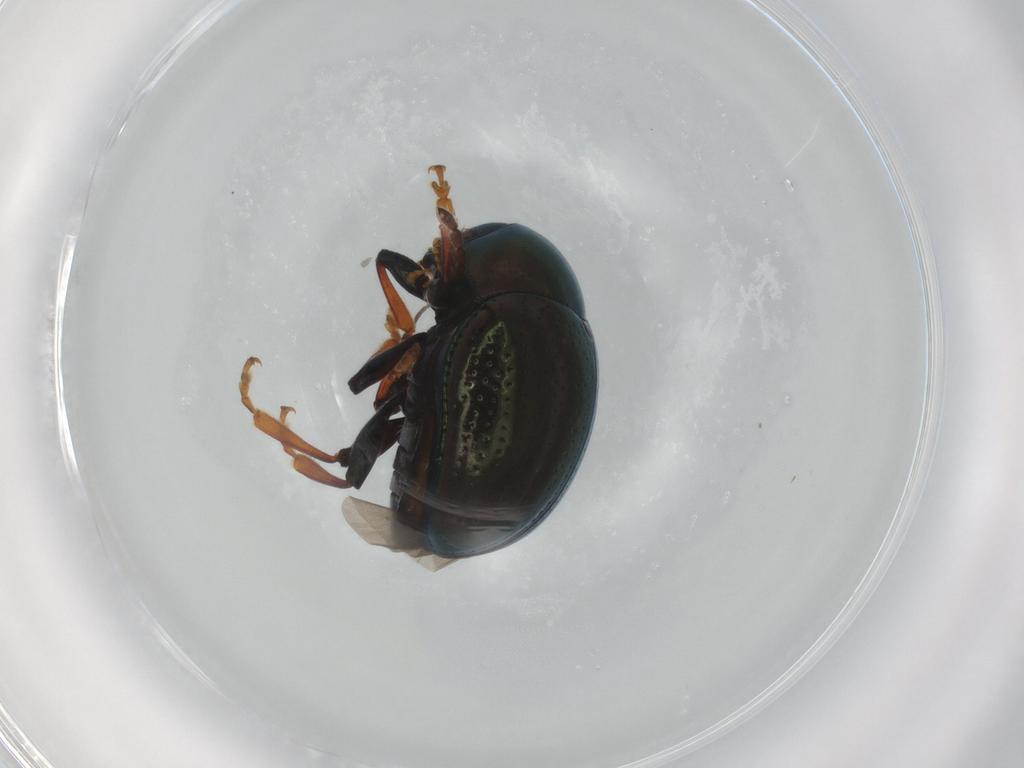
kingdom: Animalia
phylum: Arthropoda
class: Insecta
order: Coleoptera
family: Chrysomelidae
